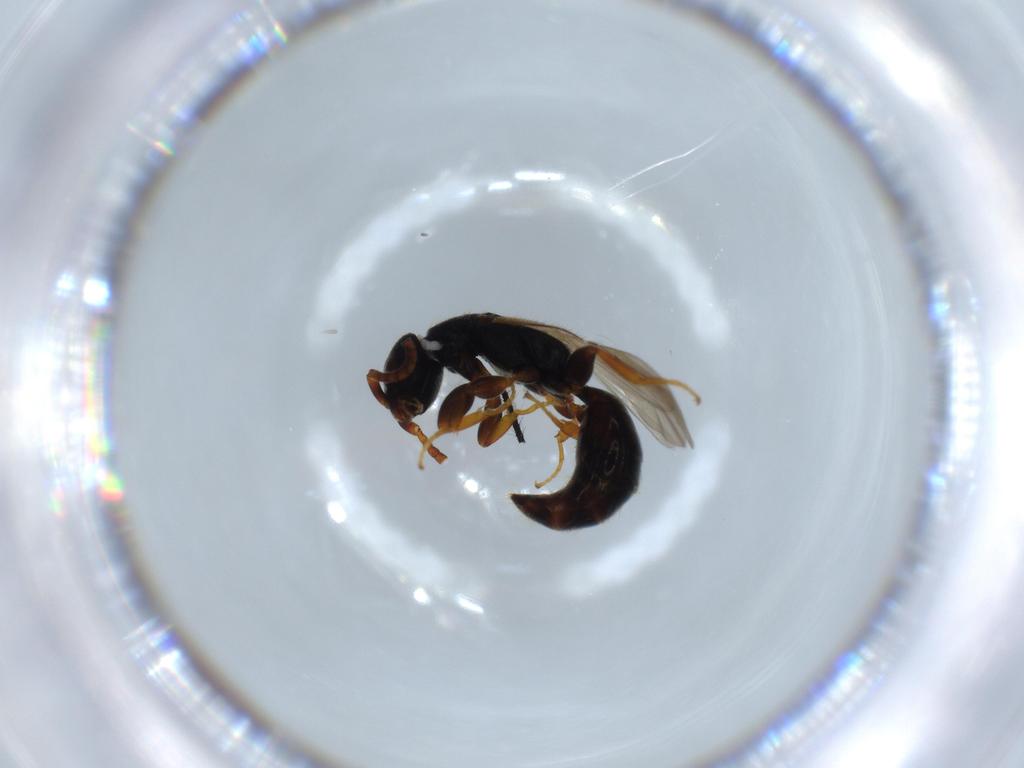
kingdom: Animalia
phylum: Arthropoda
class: Insecta
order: Hymenoptera
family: Bethylidae
